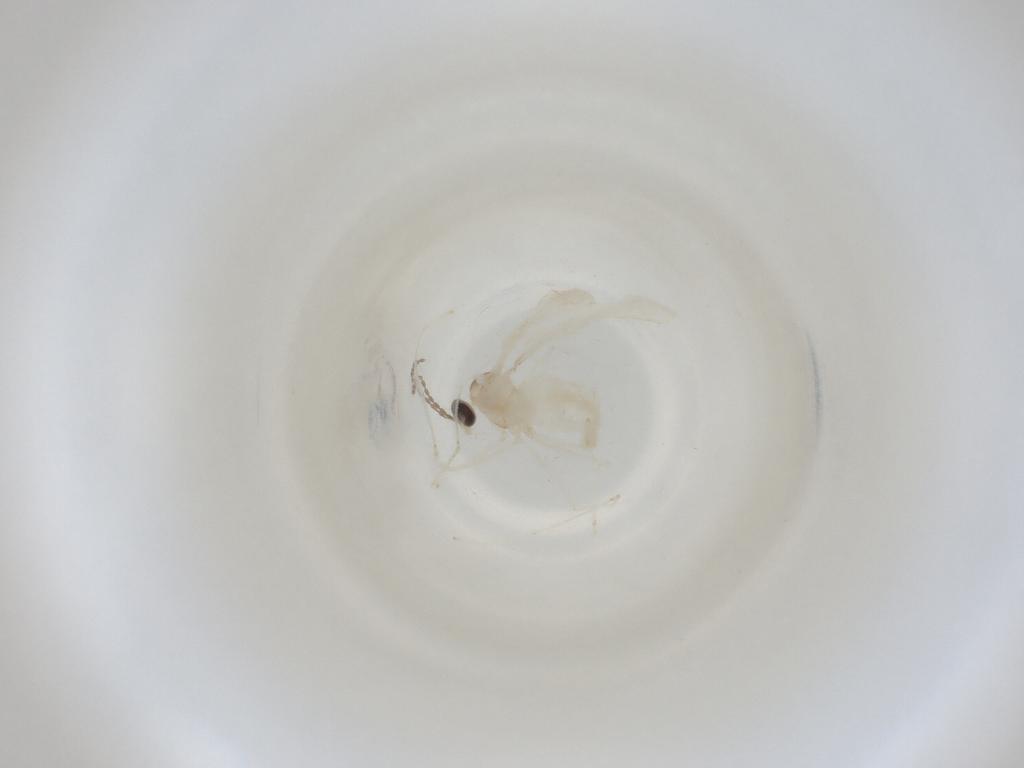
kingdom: Animalia
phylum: Arthropoda
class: Insecta
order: Diptera
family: Cecidomyiidae
